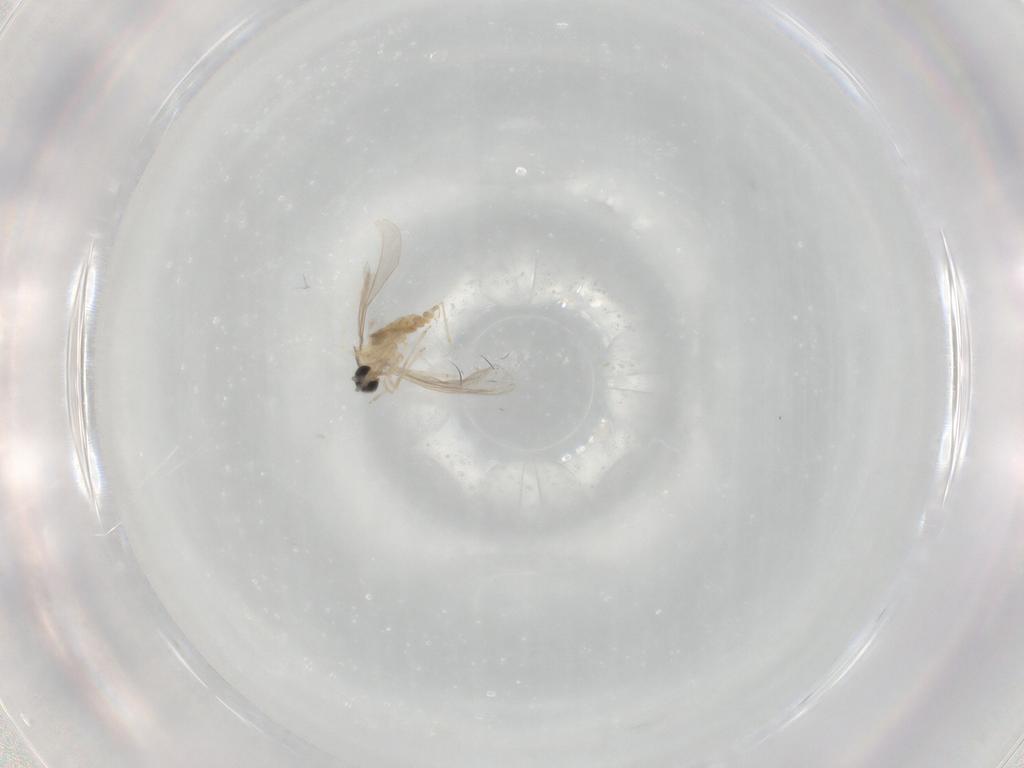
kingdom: Animalia
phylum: Arthropoda
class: Insecta
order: Diptera
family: Cecidomyiidae
